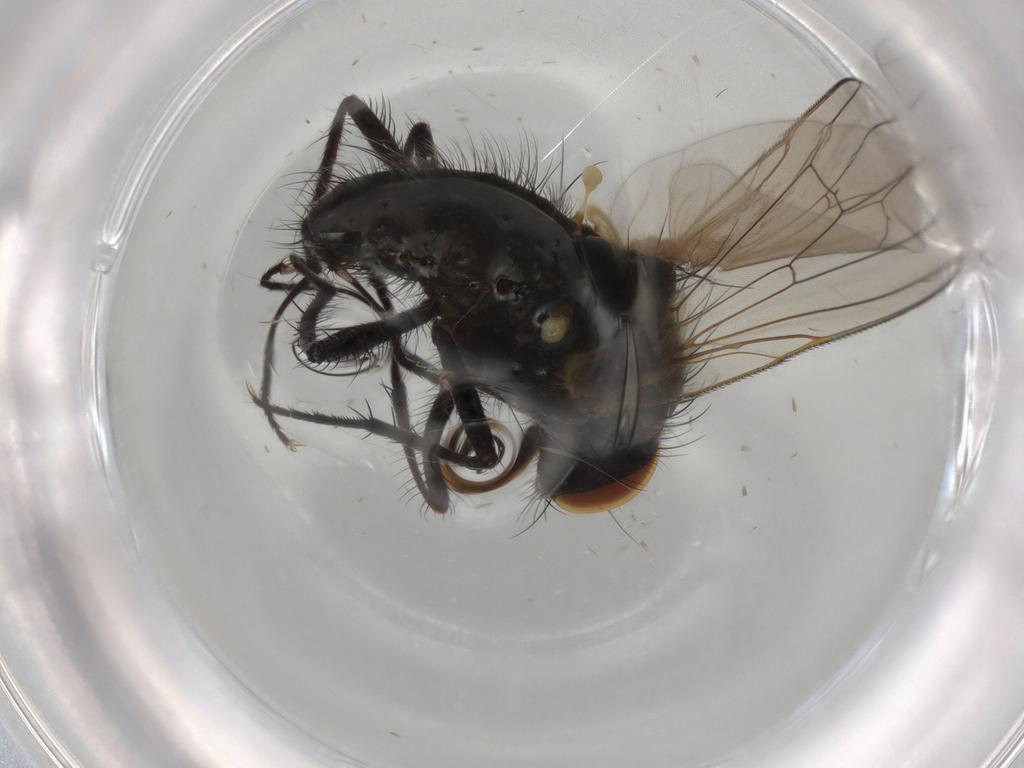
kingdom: Animalia
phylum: Arthropoda
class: Insecta
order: Diptera
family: Anthomyiidae
